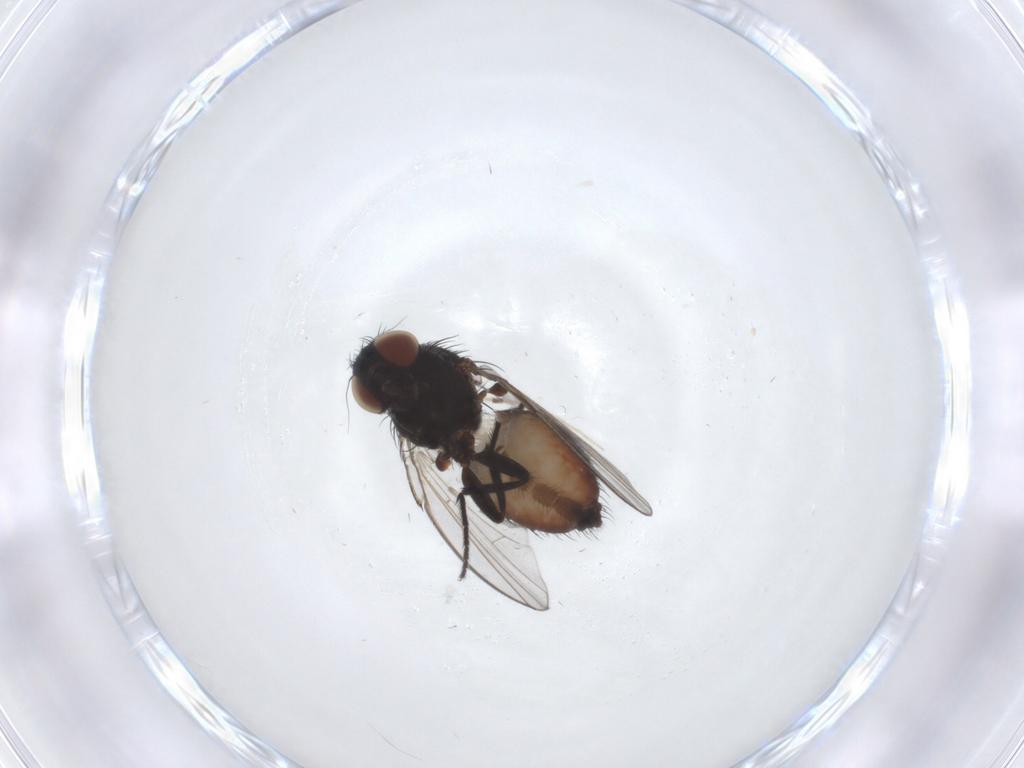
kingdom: Animalia
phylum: Arthropoda
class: Insecta
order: Diptera
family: Milichiidae
